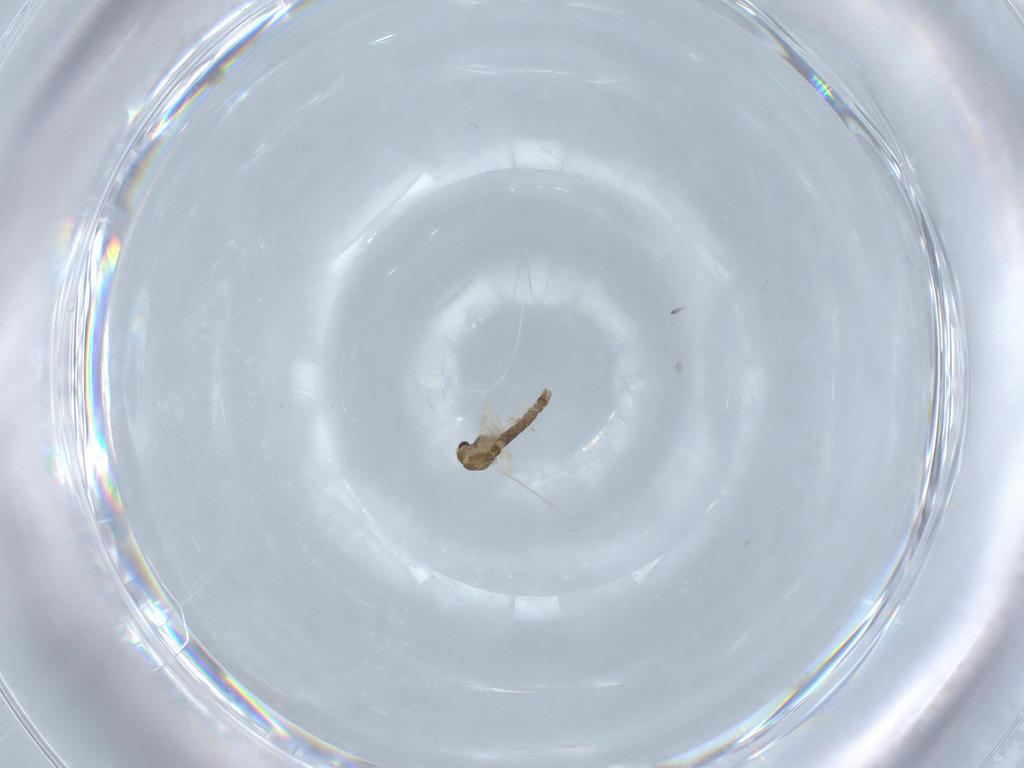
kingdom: Animalia
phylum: Arthropoda
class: Insecta
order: Diptera
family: Chironomidae
